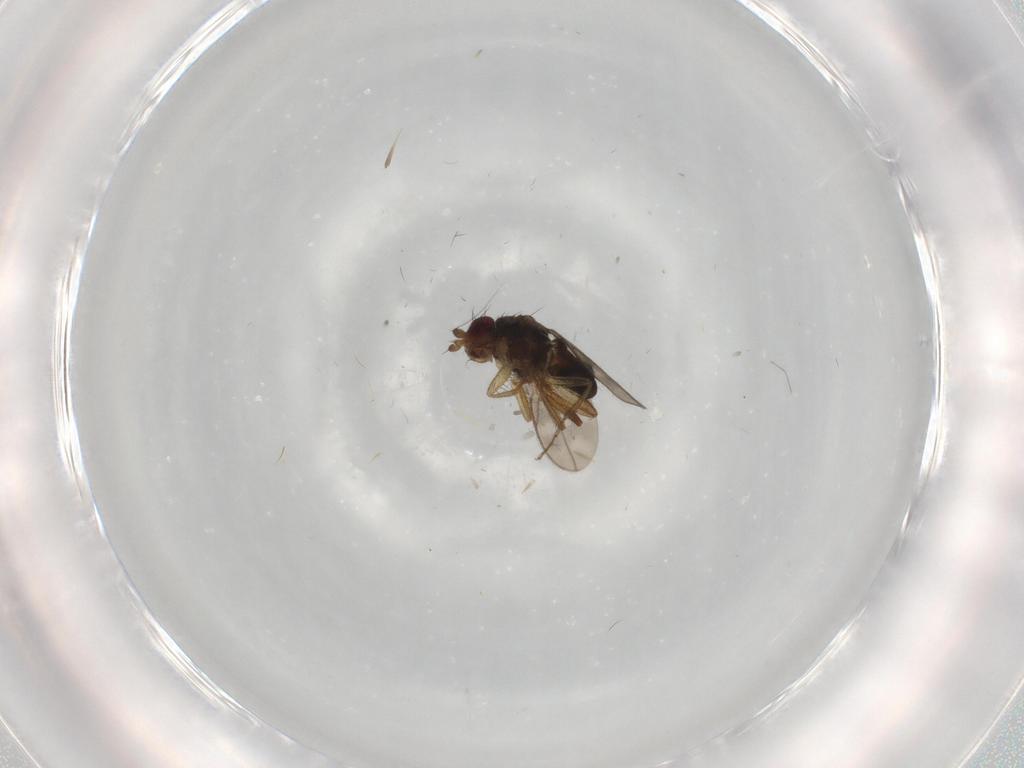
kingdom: Animalia
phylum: Arthropoda
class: Insecta
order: Diptera
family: Sphaeroceridae
